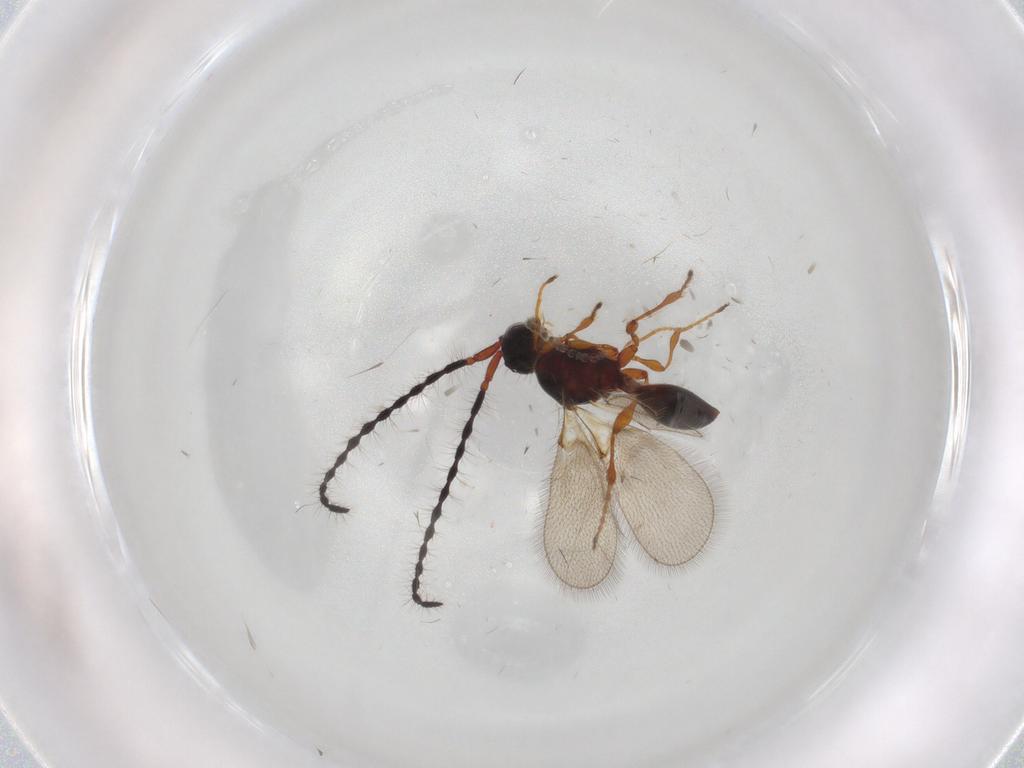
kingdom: Animalia
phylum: Arthropoda
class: Insecta
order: Hymenoptera
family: Diapriidae
